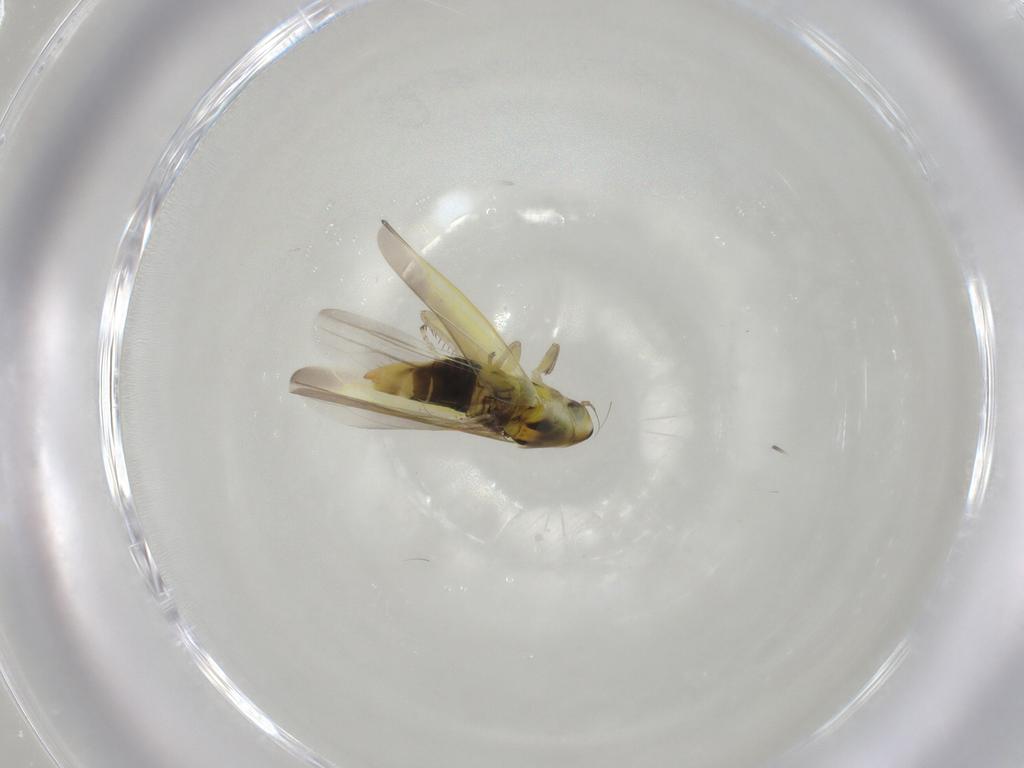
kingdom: Animalia
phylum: Arthropoda
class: Insecta
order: Hemiptera
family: Cicadellidae
